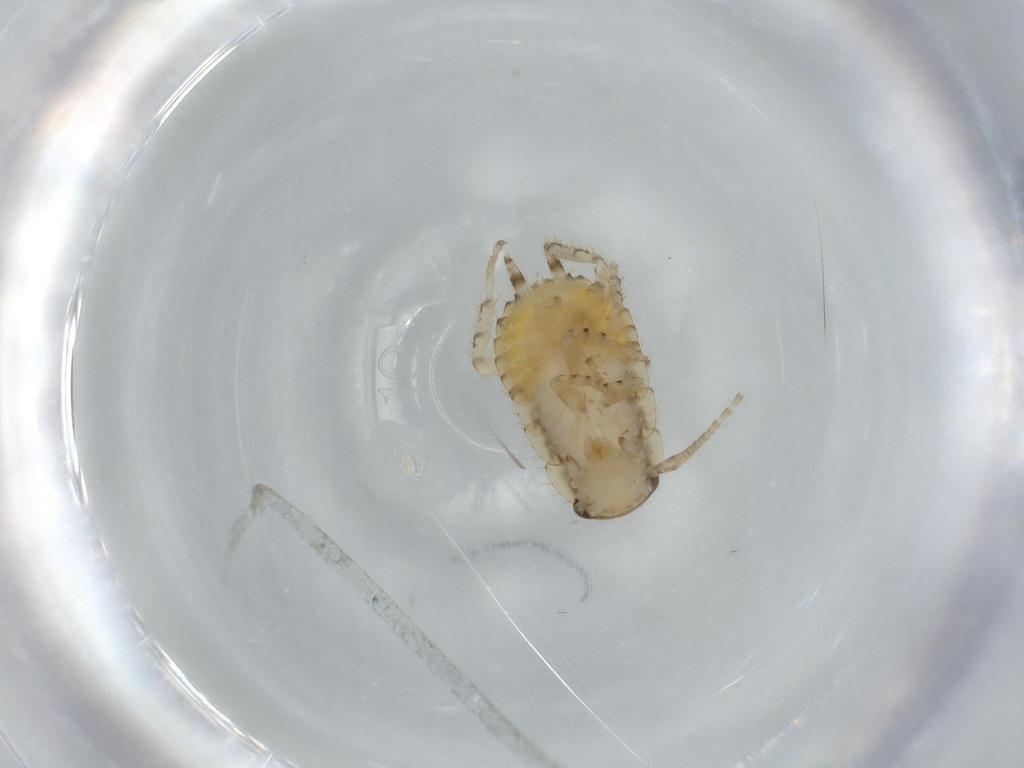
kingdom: Animalia
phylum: Arthropoda
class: Insecta
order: Blattodea
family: Ectobiidae
